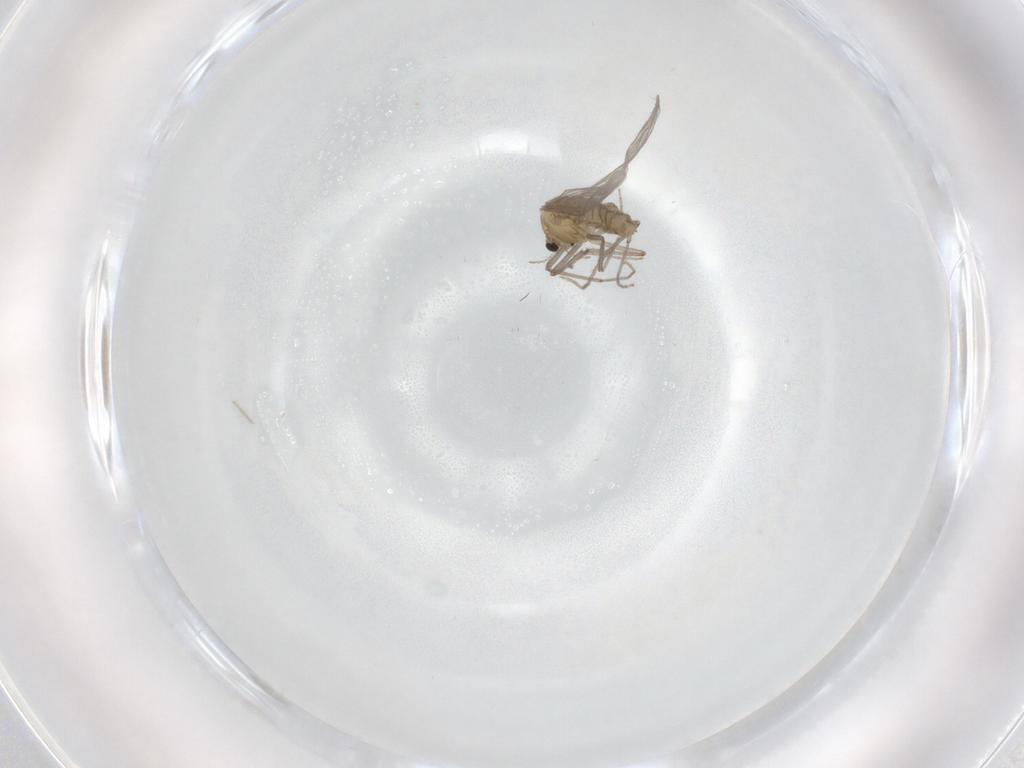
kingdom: Animalia
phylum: Arthropoda
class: Insecta
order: Diptera
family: Chironomidae
